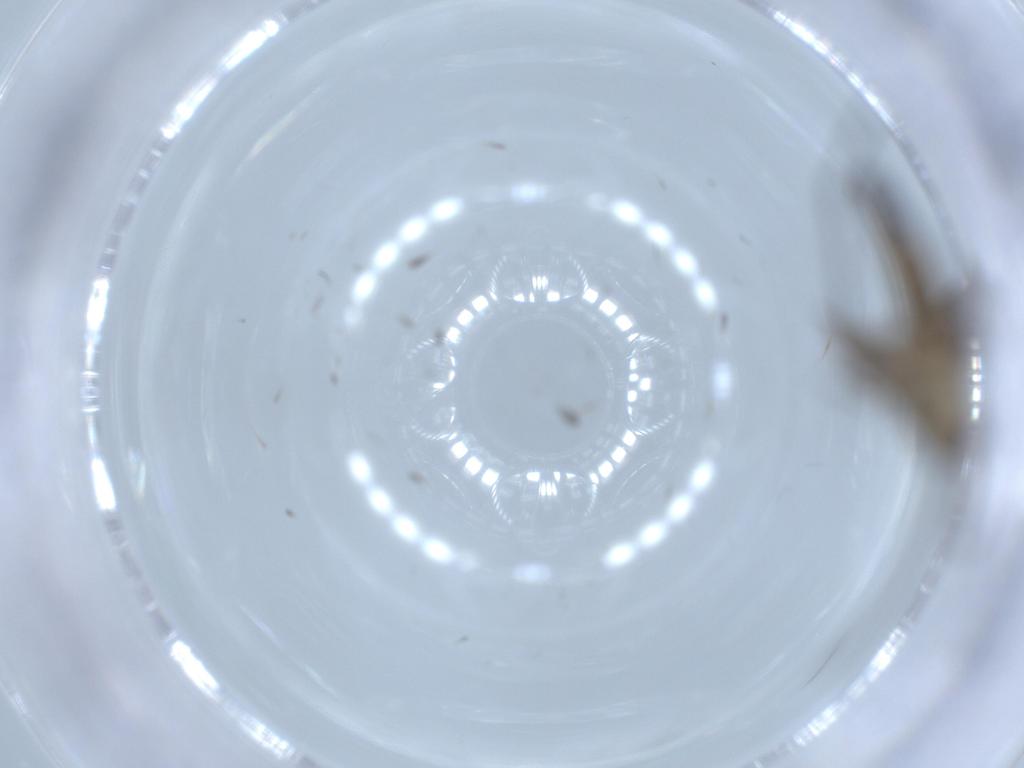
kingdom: Animalia
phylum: Arthropoda
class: Insecta
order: Diptera
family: Sciaridae
